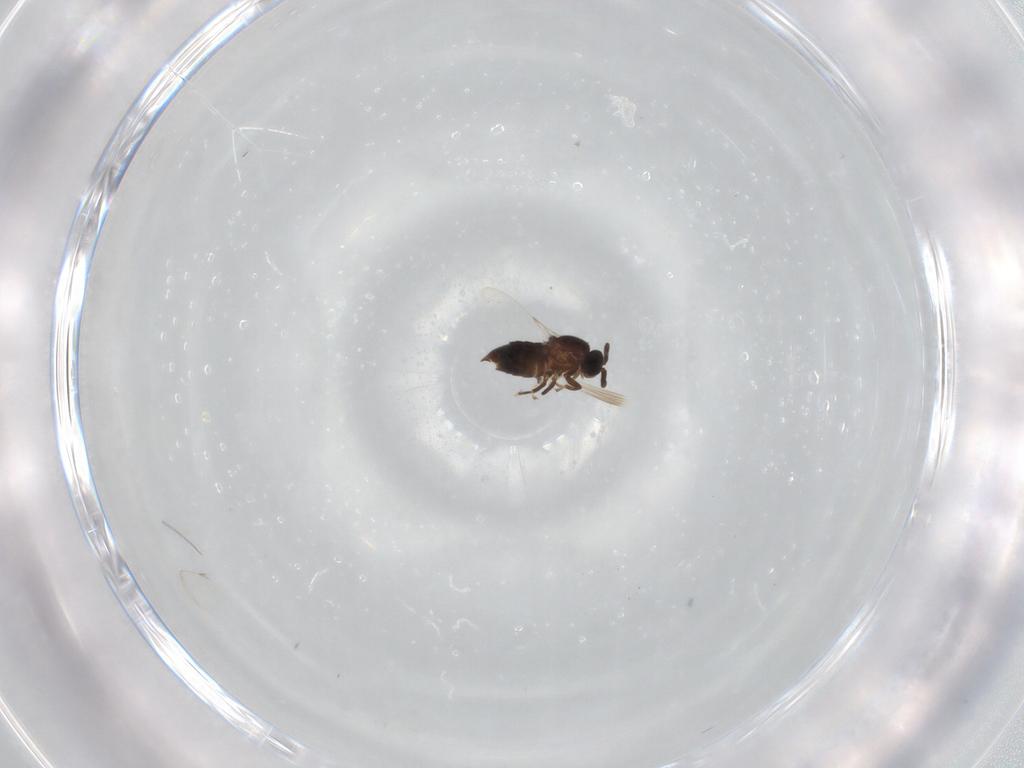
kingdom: Animalia
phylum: Arthropoda
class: Insecta
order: Diptera
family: Scatopsidae
